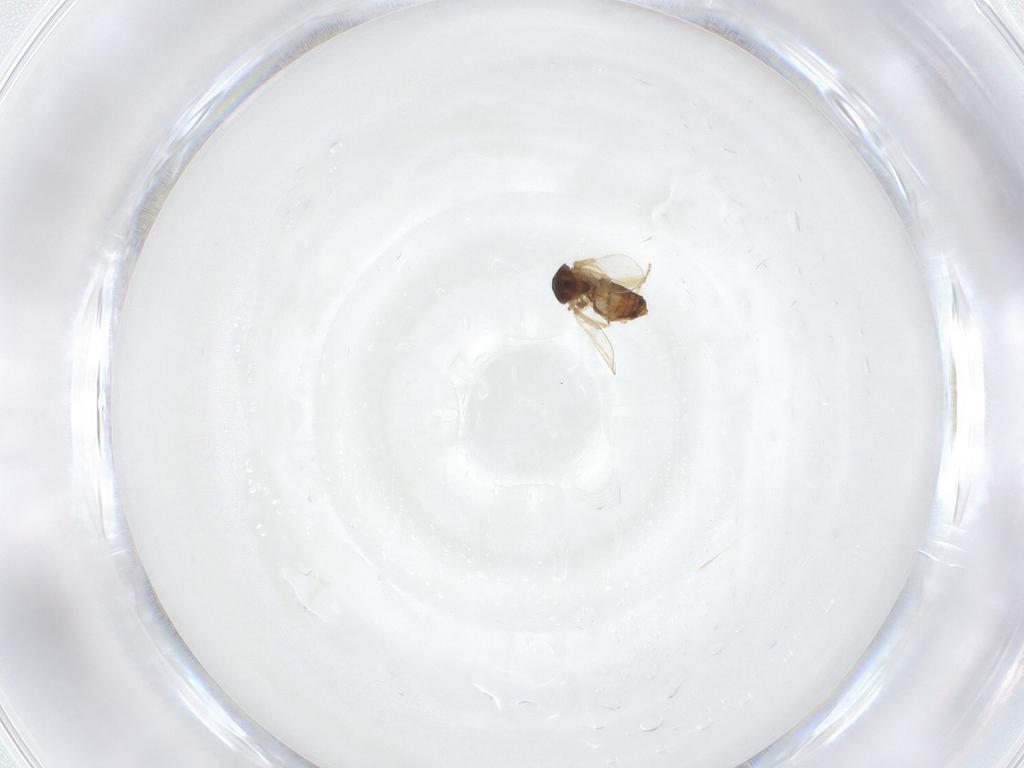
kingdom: Animalia
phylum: Arthropoda
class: Insecta
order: Diptera
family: Ceratopogonidae
